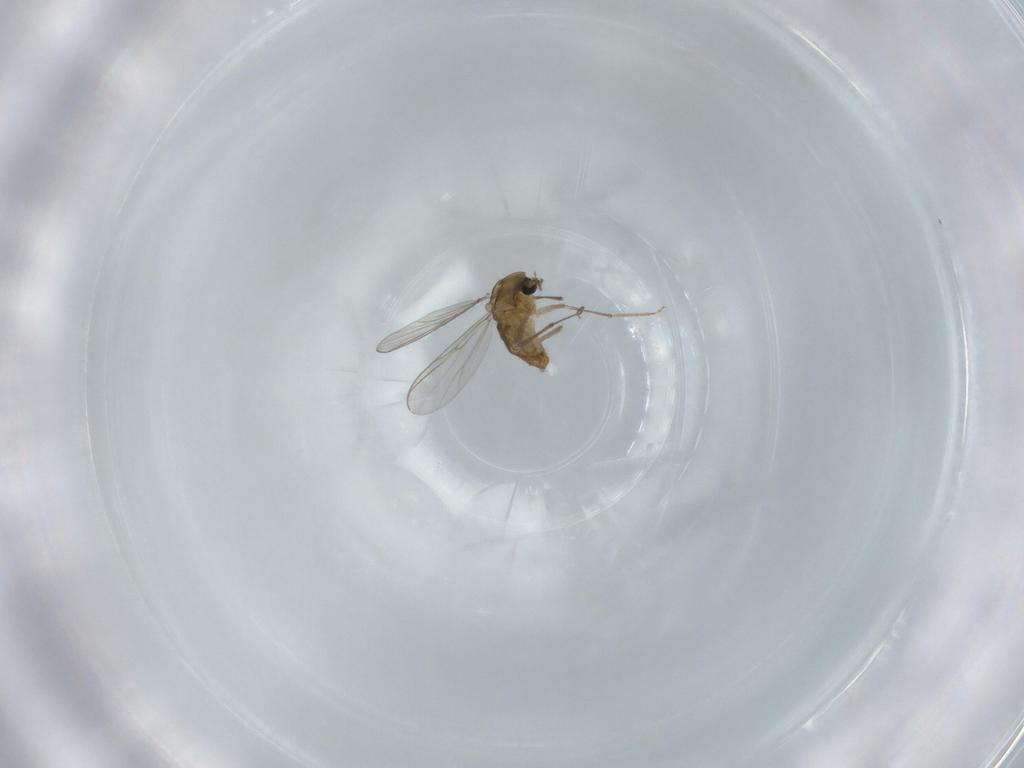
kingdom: Animalia
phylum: Arthropoda
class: Insecta
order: Diptera
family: Chironomidae
